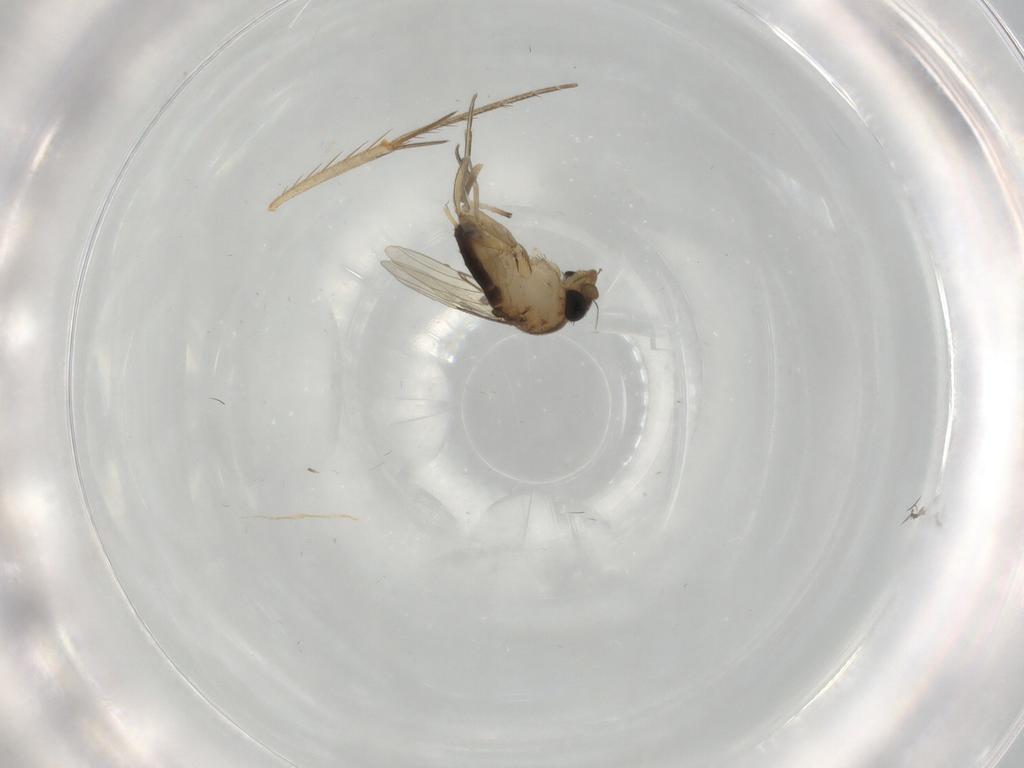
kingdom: Animalia
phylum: Arthropoda
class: Insecta
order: Diptera
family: Phoridae
